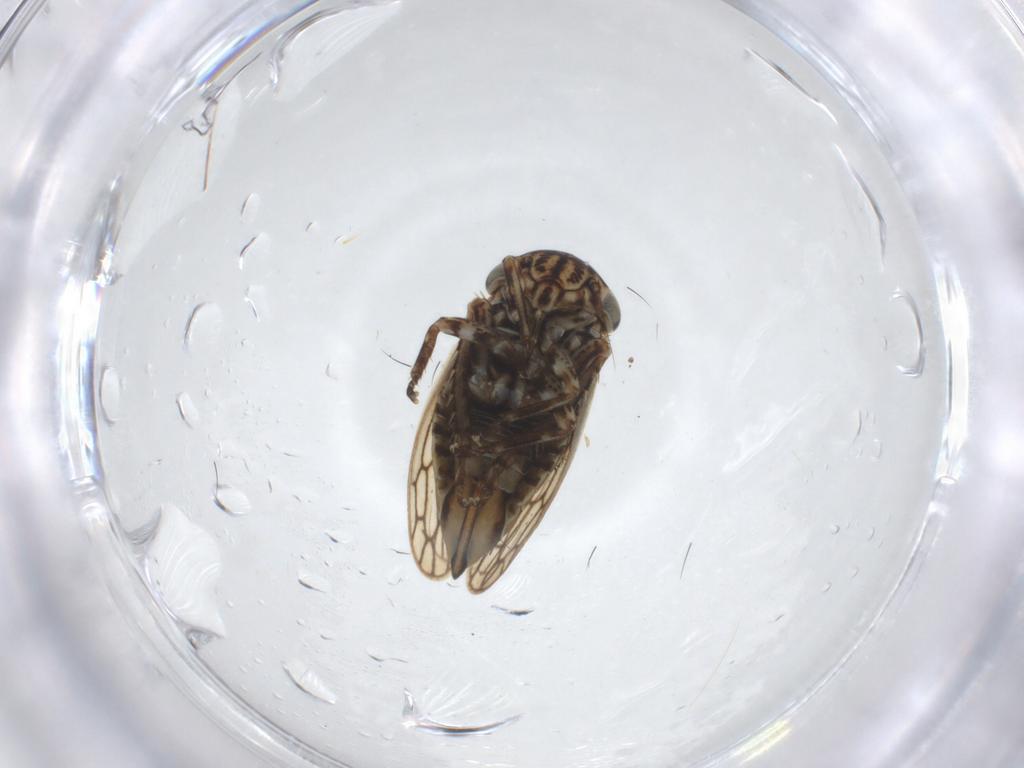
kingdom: Animalia
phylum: Arthropoda
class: Insecta
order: Hemiptera
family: Cicadellidae
